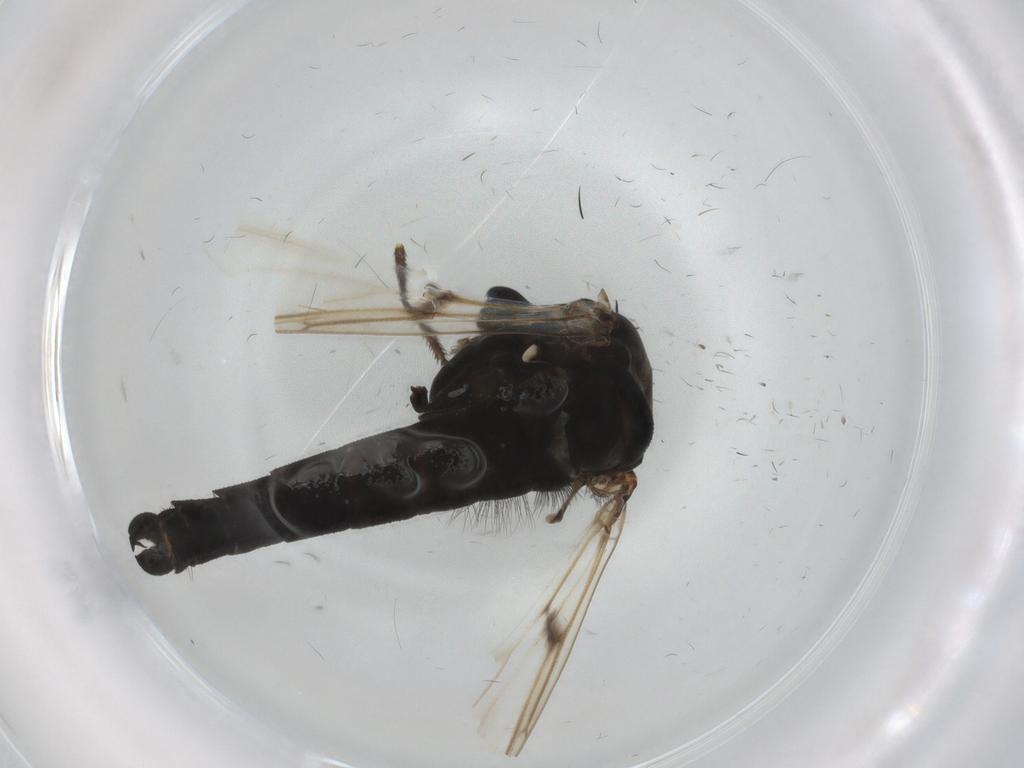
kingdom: Animalia
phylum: Arthropoda
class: Insecta
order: Diptera
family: Chironomidae
